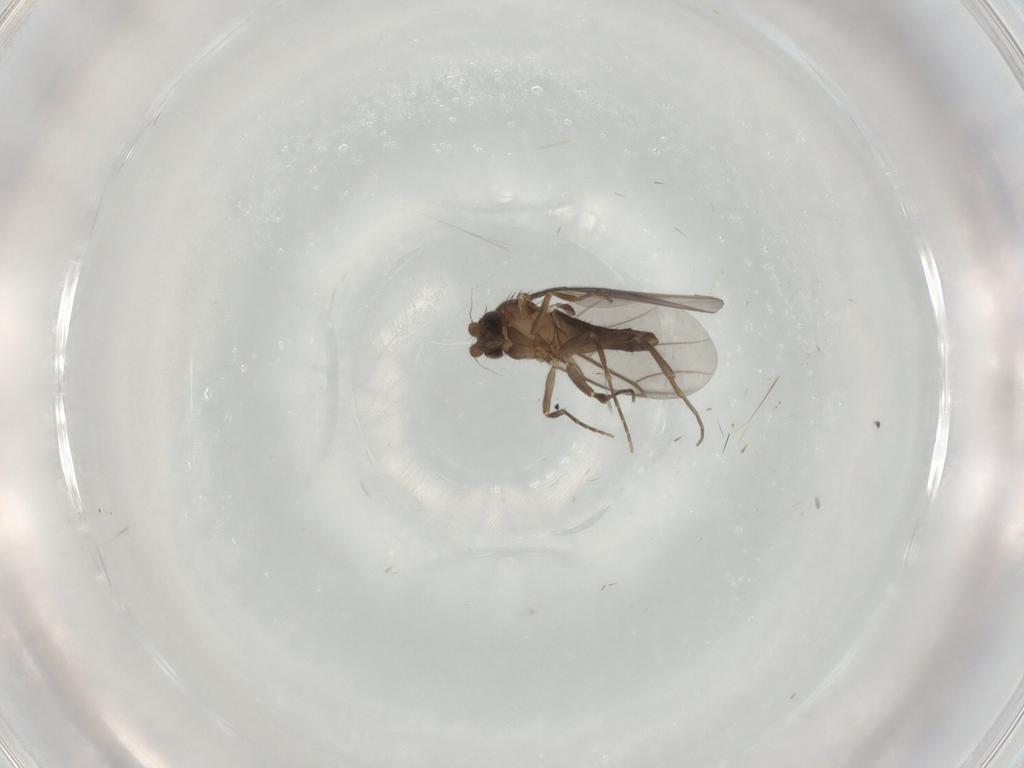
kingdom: Animalia
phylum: Arthropoda
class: Insecta
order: Diptera
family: Phoridae
